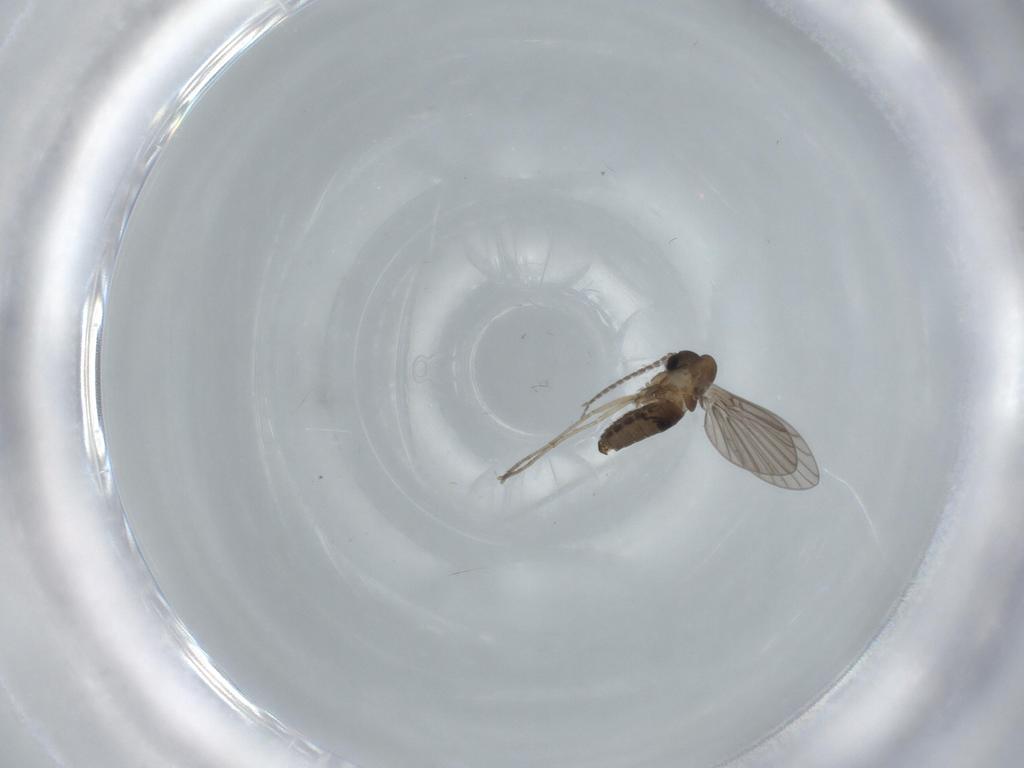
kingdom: Animalia
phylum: Arthropoda
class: Insecta
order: Diptera
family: Psychodidae
